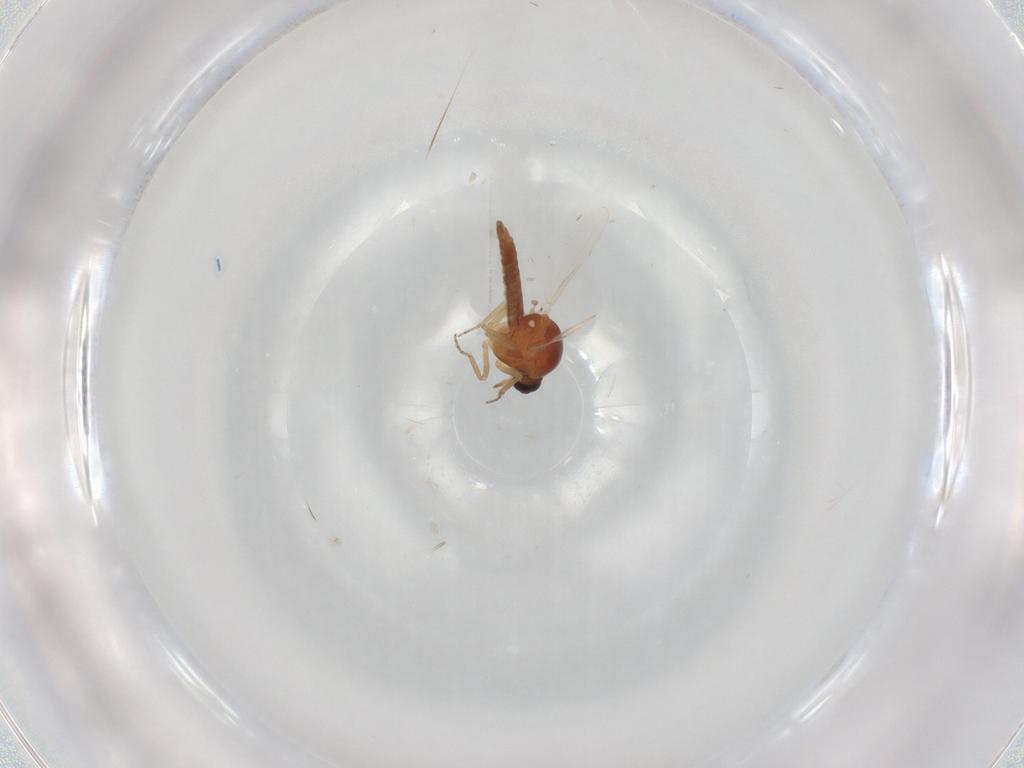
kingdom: Animalia
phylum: Arthropoda
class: Insecta
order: Diptera
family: Ceratopogonidae
